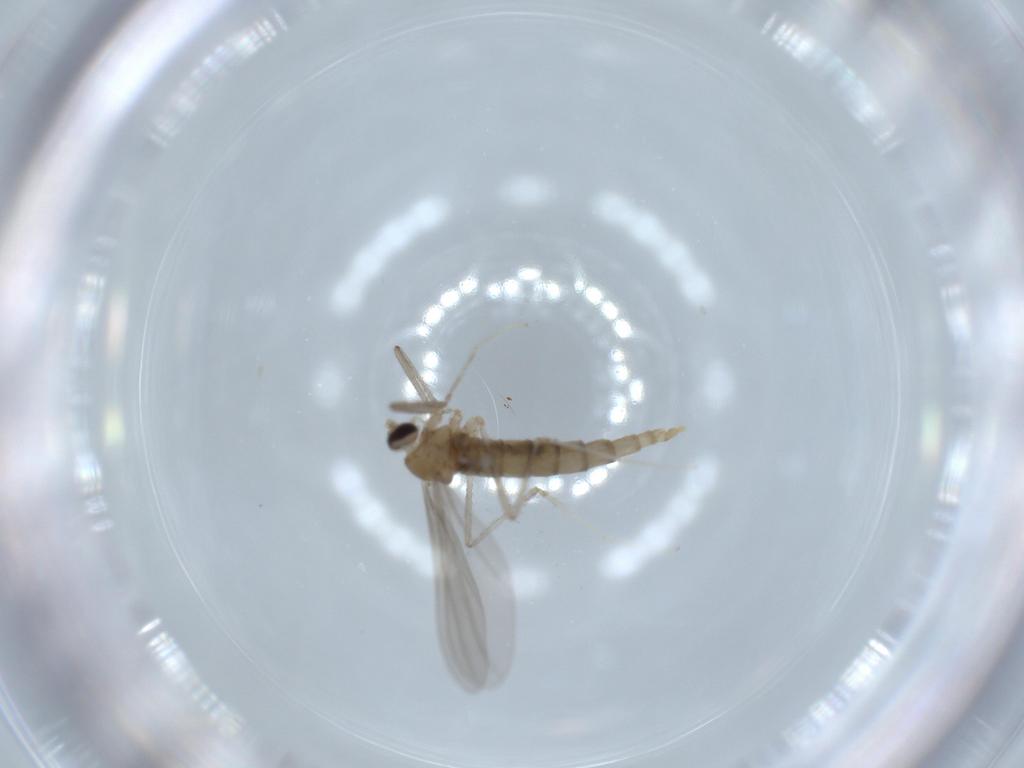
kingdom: Animalia
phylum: Arthropoda
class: Insecta
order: Diptera
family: Cecidomyiidae
